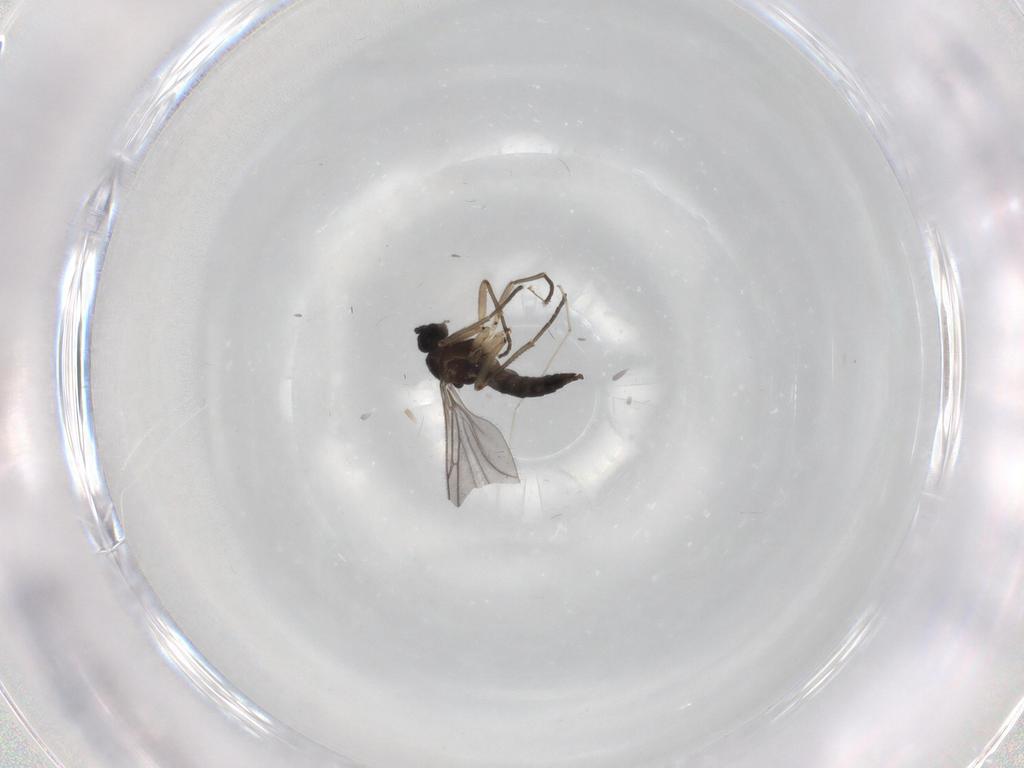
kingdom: Animalia
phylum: Arthropoda
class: Insecta
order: Diptera
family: Sciaridae
